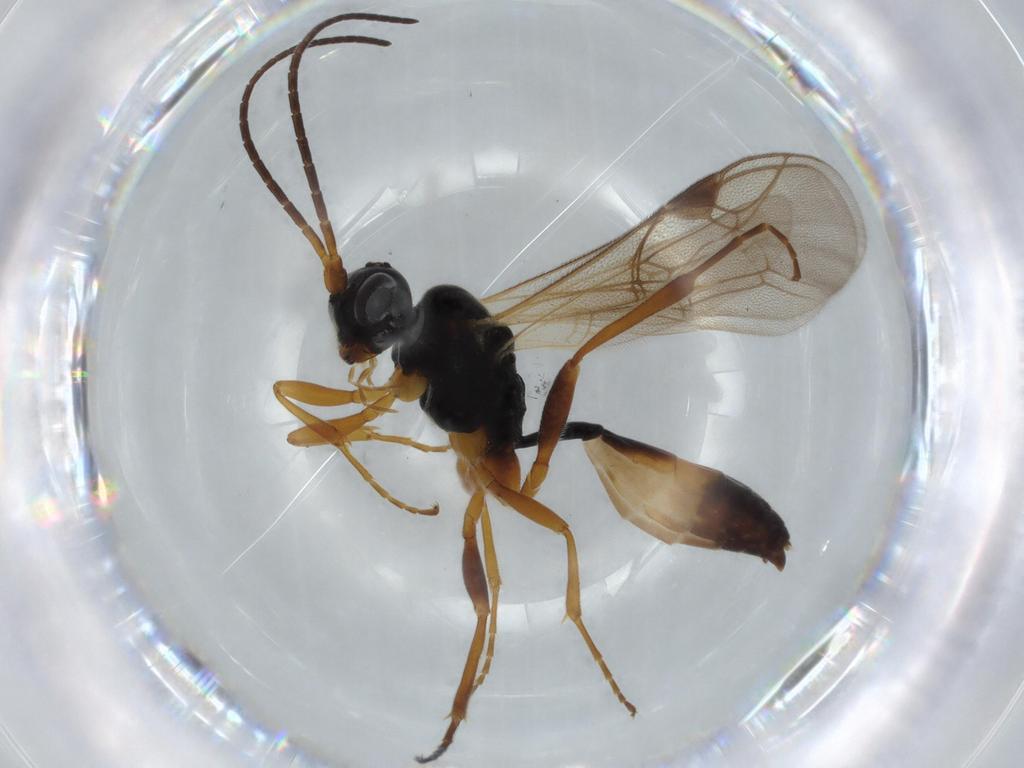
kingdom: Animalia
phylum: Arthropoda
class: Insecta
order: Hymenoptera
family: Ichneumonidae
